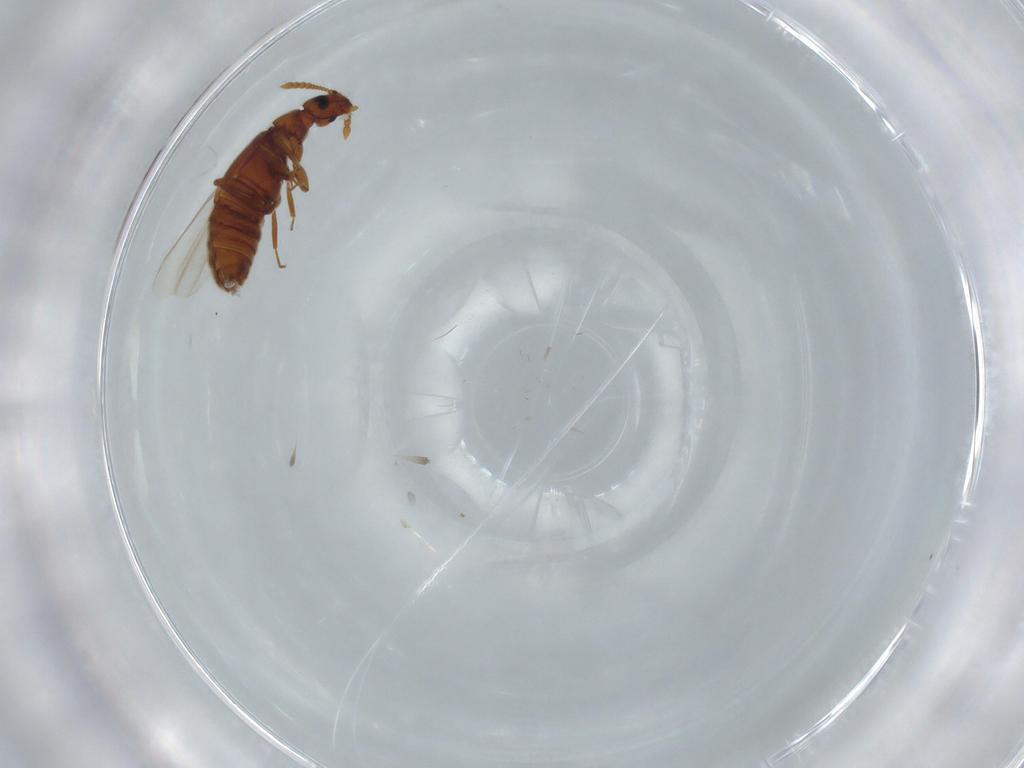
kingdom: Animalia
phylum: Arthropoda
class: Insecta
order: Coleoptera
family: Staphylinidae
